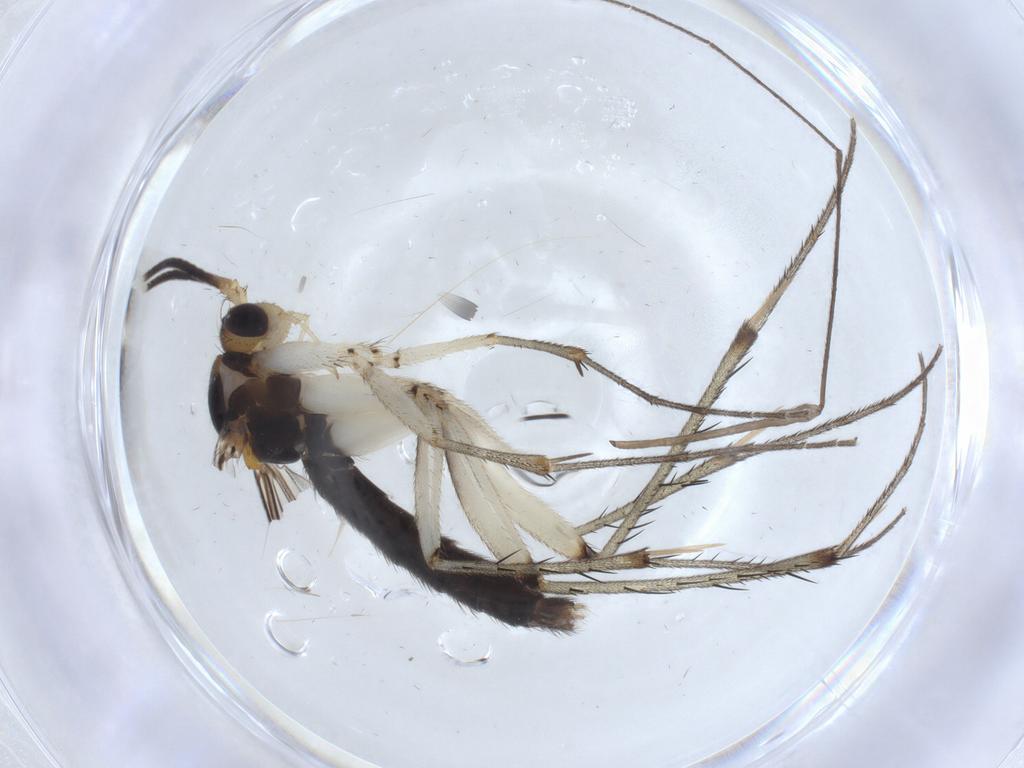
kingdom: Animalia
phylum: Arthropoda
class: Insecta
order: Diptera
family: Mycetophilidae
